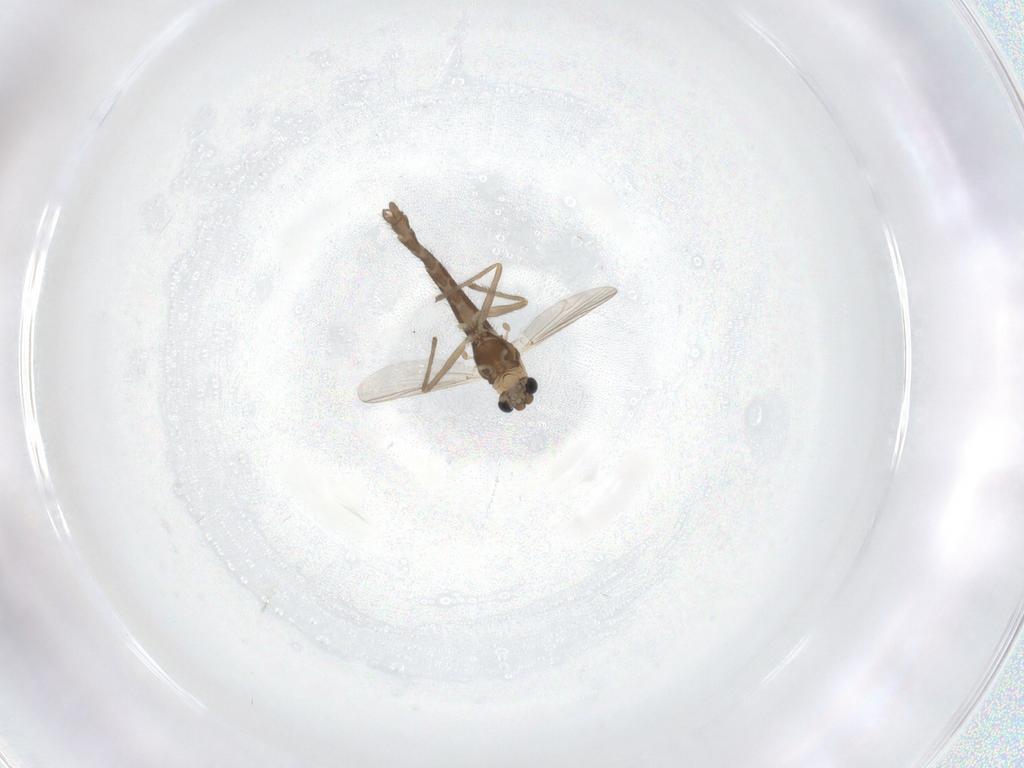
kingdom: Animalia
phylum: Arthropoda
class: Insecta
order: Diptera
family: Chironomidae
